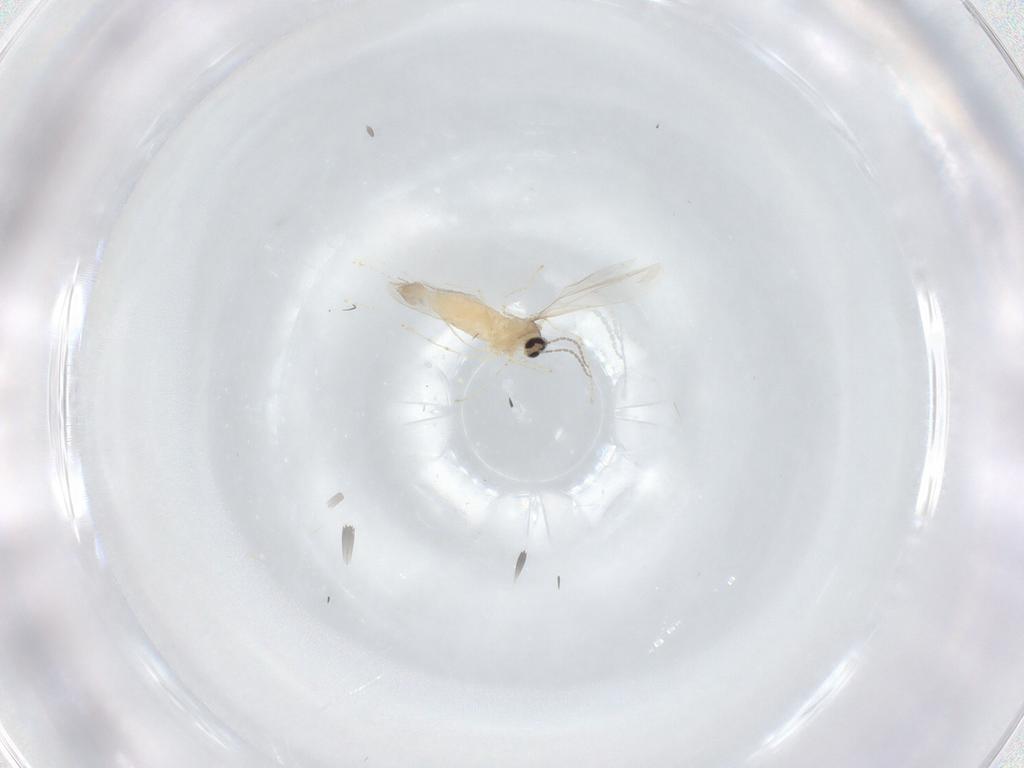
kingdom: Animalia
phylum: Arthropoda
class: Insecta
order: Diptera
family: Cecidomyiidae
